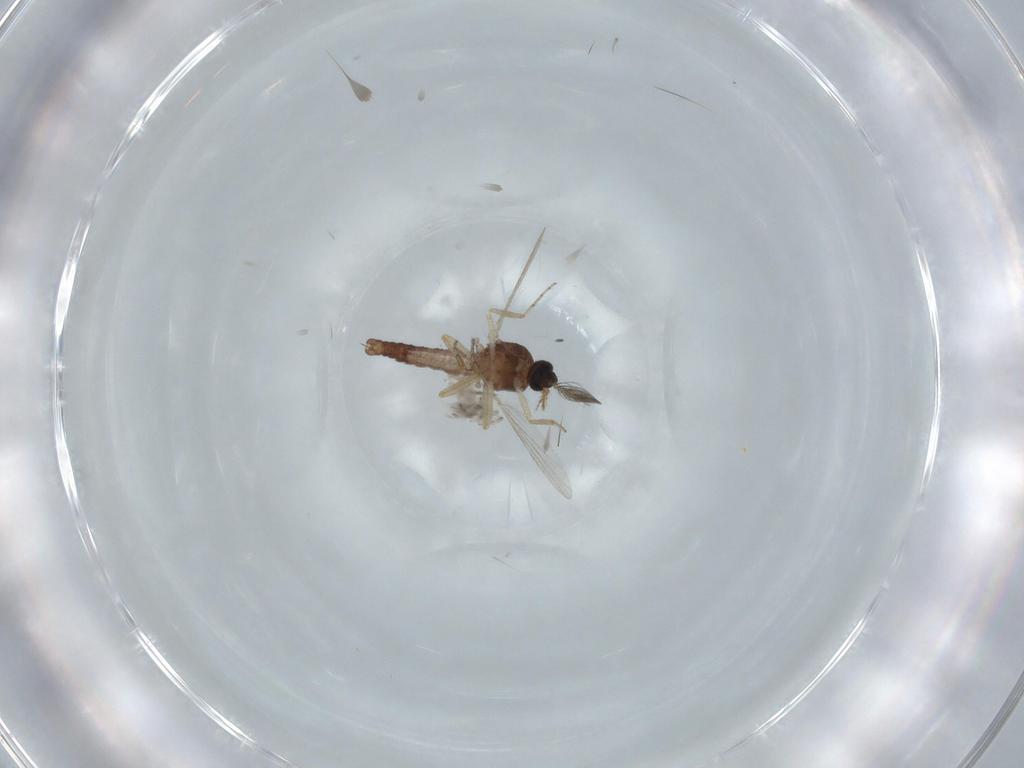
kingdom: Animalia
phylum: Arthropoda
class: Insecta
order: Diptera
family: Ceratopogonidae
